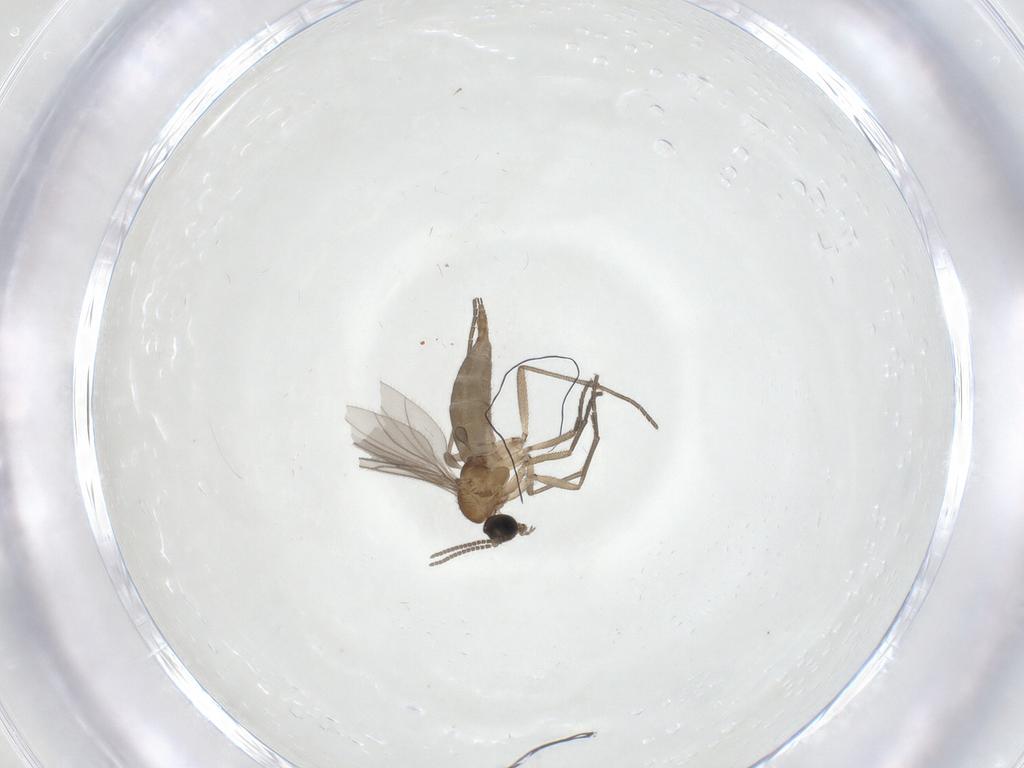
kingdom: Animalia
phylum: Arthropoda
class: Insecta
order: Diptera
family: Sciaridae
